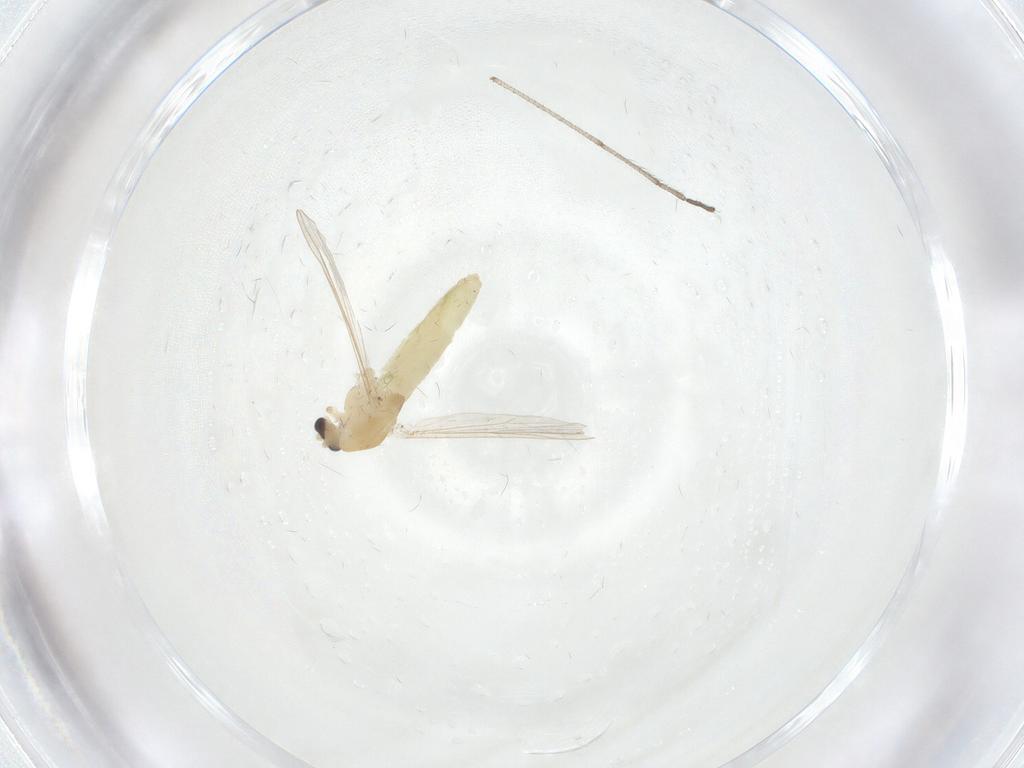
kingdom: Animalia
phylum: Arthropoda
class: Insecta
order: Diptera
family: Chironomidae
